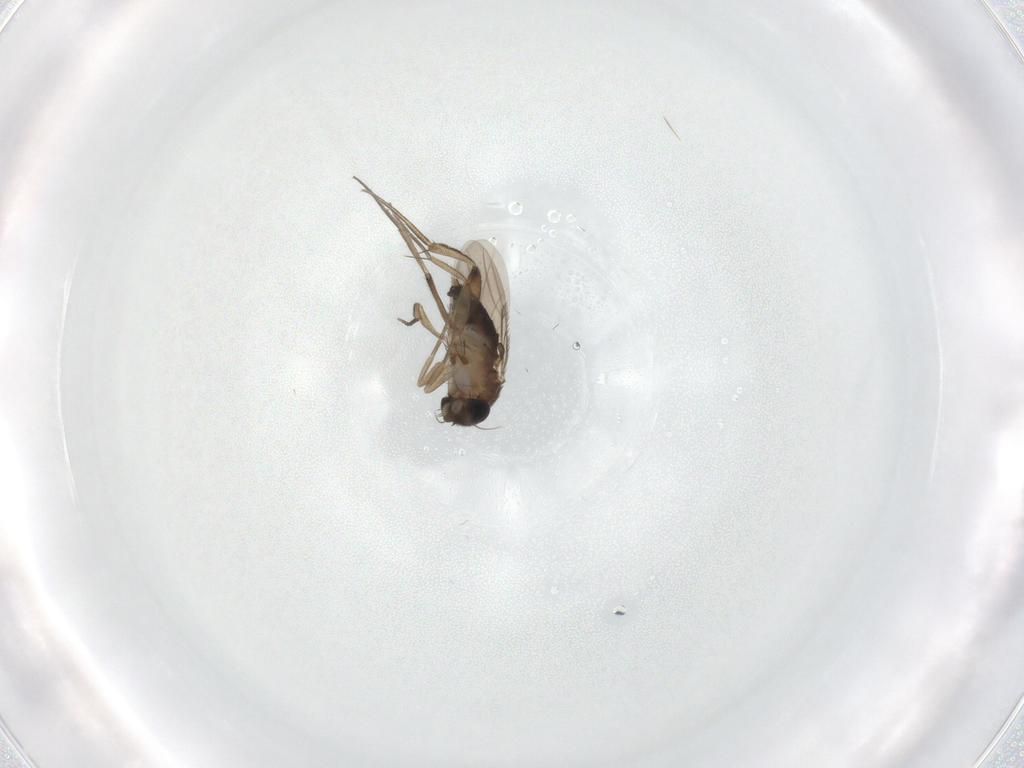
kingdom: Animalia
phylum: Arthropoda
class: Insecta
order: Diptera
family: Phoridae
